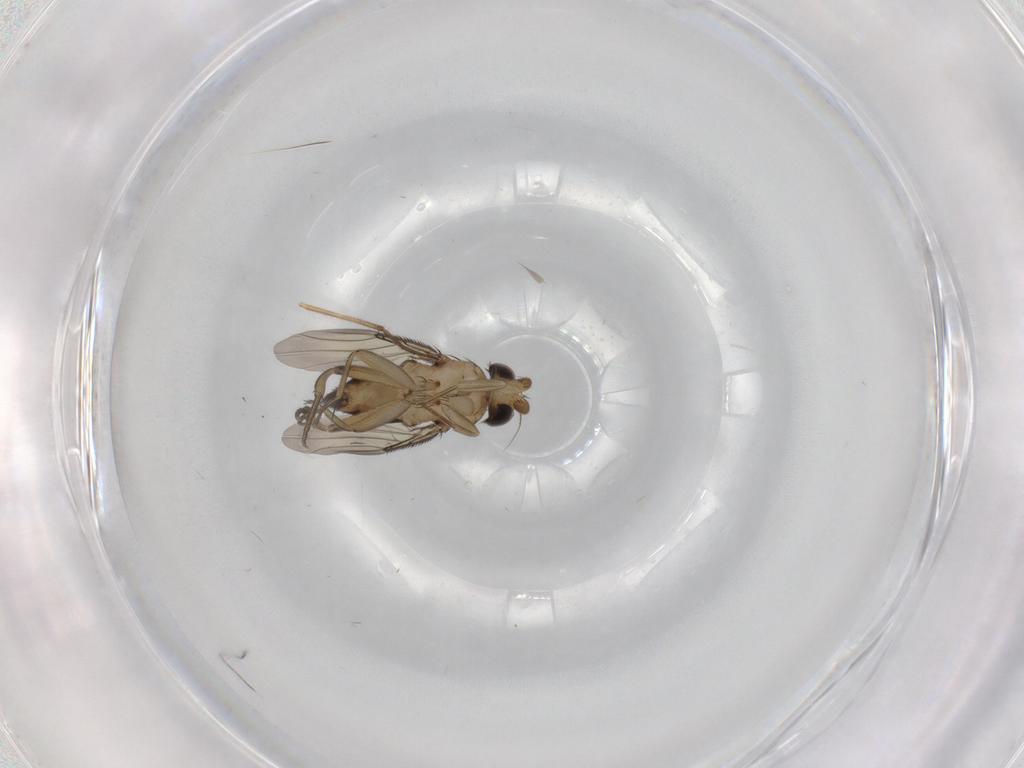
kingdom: Animalia
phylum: Arthropoda
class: Insecta
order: Diptera
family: Phoridae
